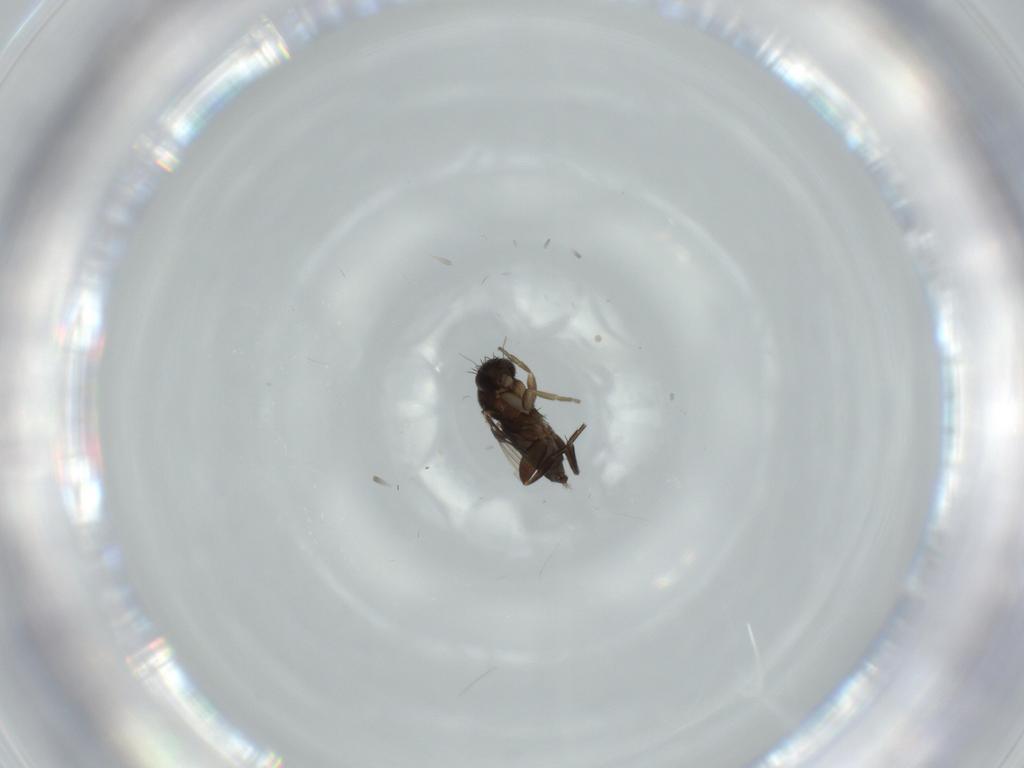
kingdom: Animalia
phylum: Arthropoda
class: Insecta
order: Diptera
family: Phoridae
